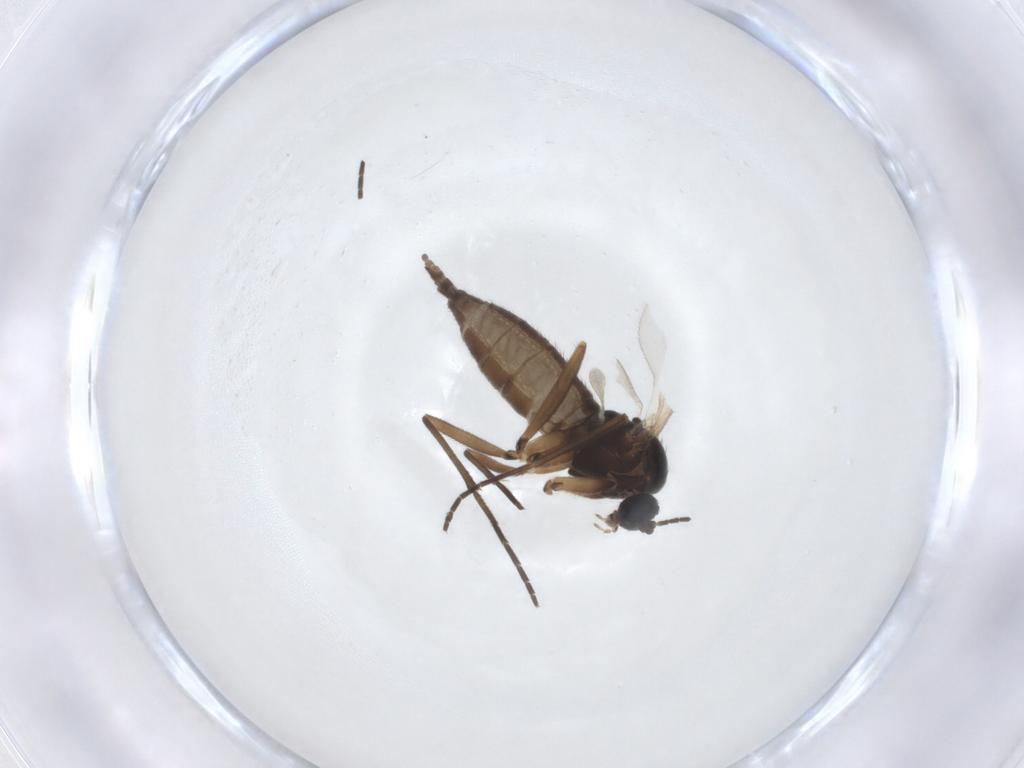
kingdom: Animalia
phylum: Arthropoda
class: Insecta
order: Diptera
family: Sciaridae
